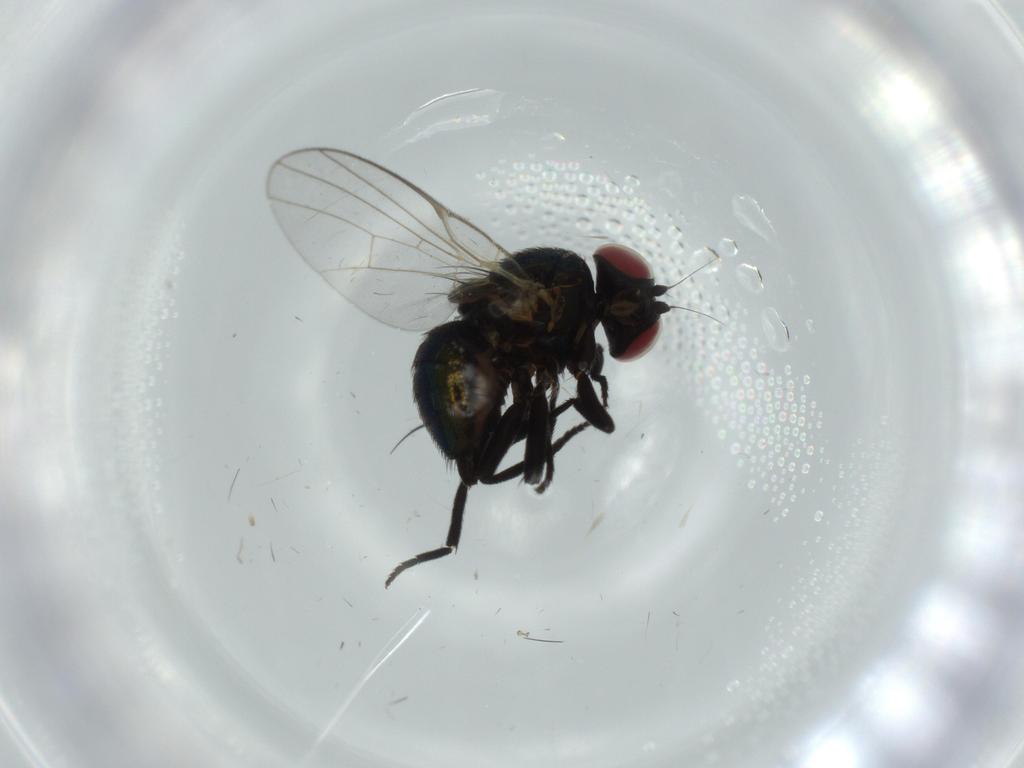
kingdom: Animalia
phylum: Arthropoda
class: Insecta
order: Diptera
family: Agromyzidae
